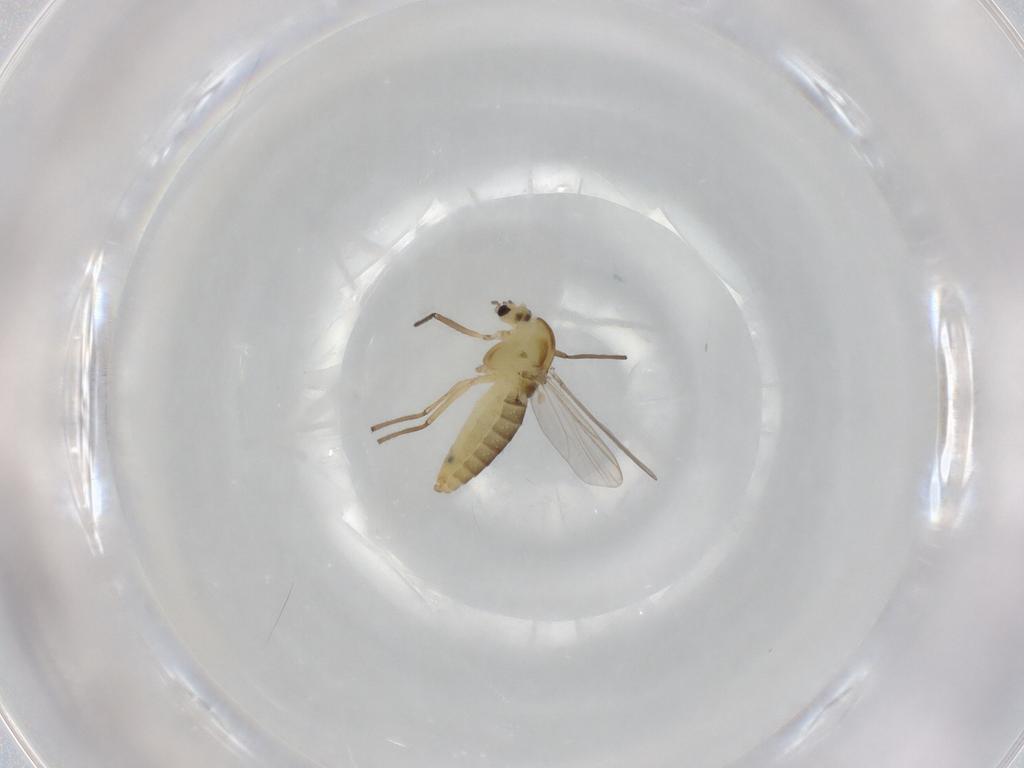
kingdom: Animalia
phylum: Arthropoda
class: Insecta
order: Diptera
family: Chironomidae
